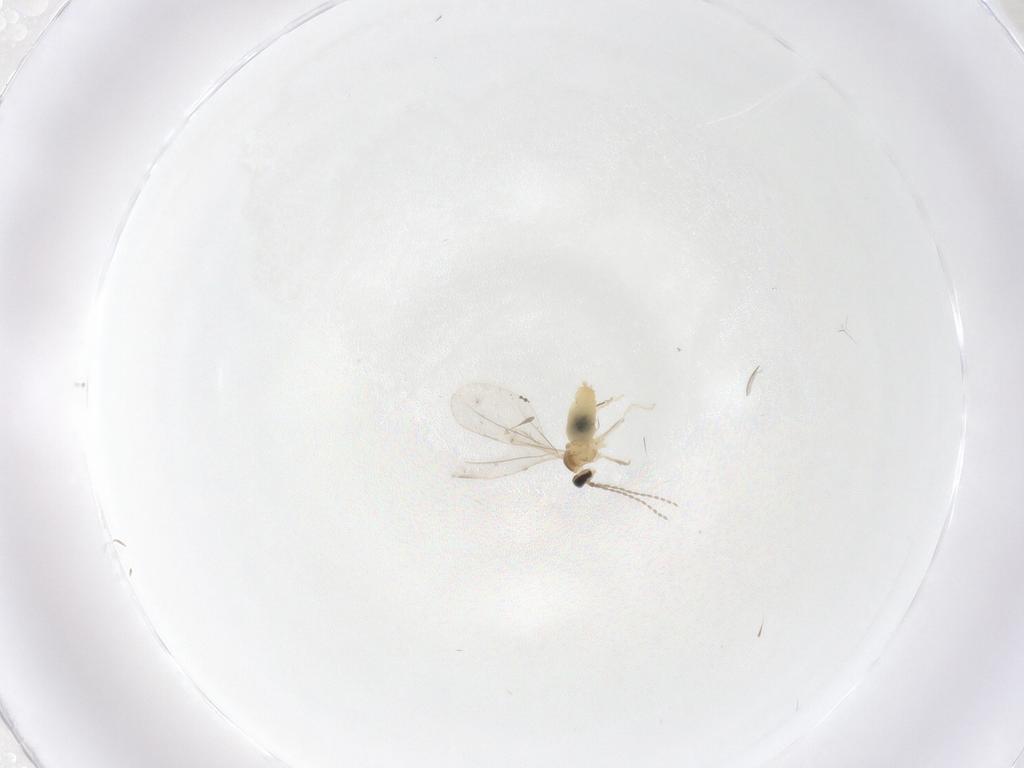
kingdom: Animalia
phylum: Arthropoda
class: Insecta
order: Diptera
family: Cecidomyiidae
